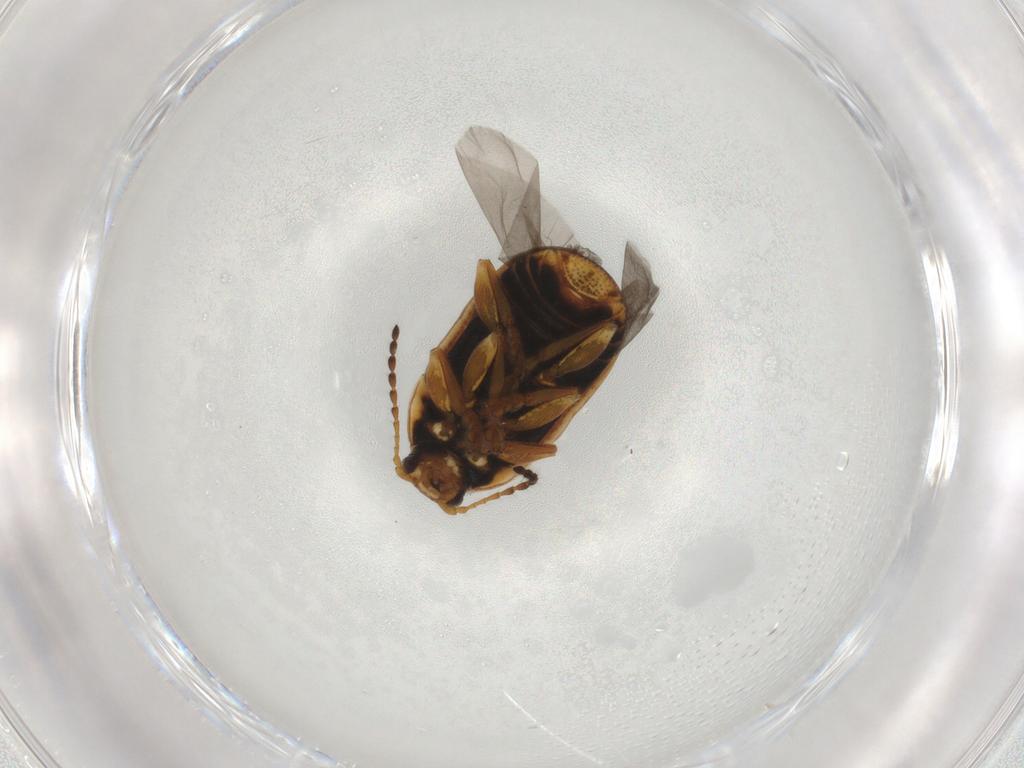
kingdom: Animalia
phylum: Arthropoda
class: Insecta
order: Coleoptera
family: Chrysomelidae
